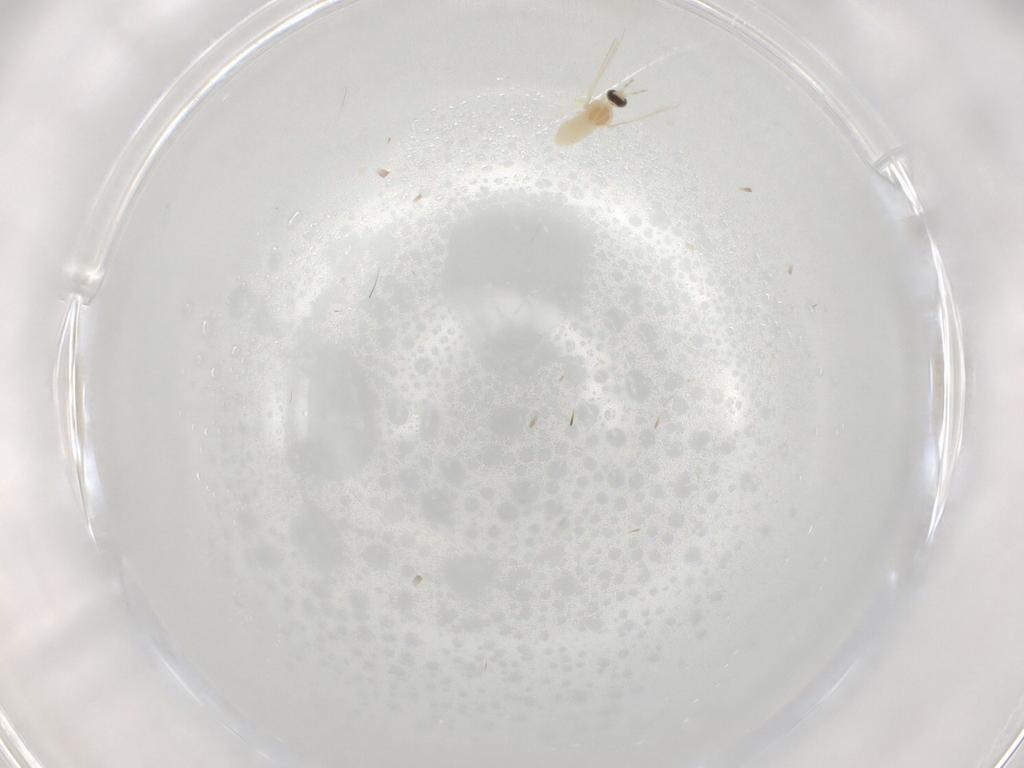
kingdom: Animalia
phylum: Arthropoda
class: Insecta
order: Diptera
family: Cecidomyiidae
